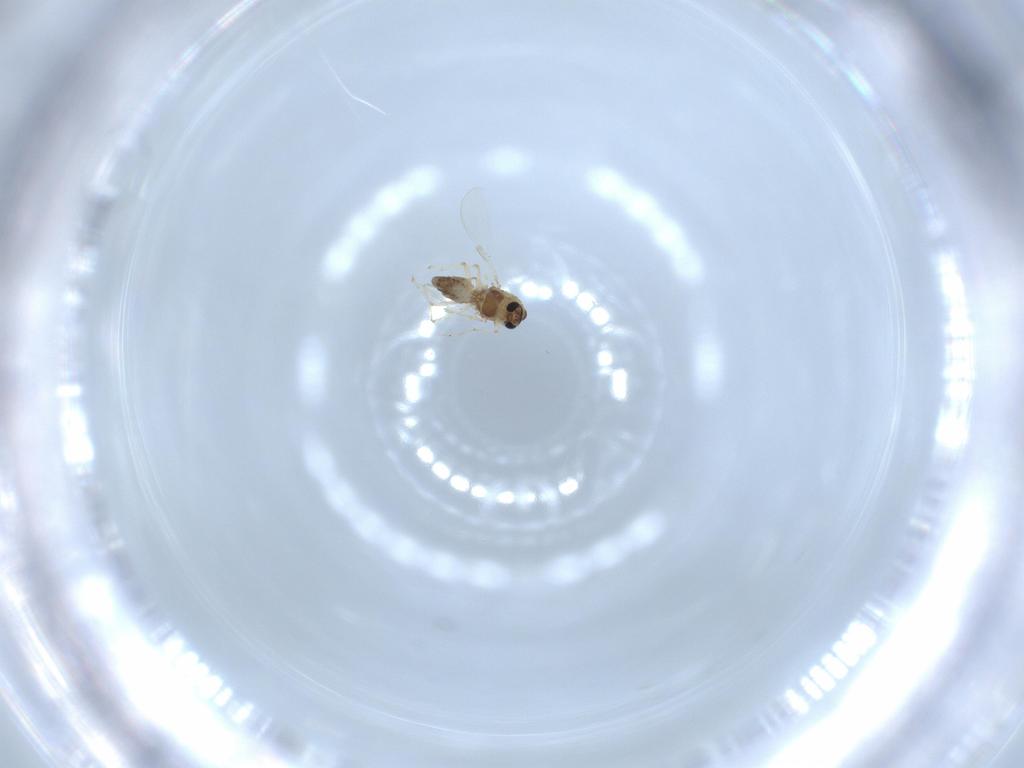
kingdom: Animalia
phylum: Arthropoda
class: Insecta
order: Diptera
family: Chironomidae
